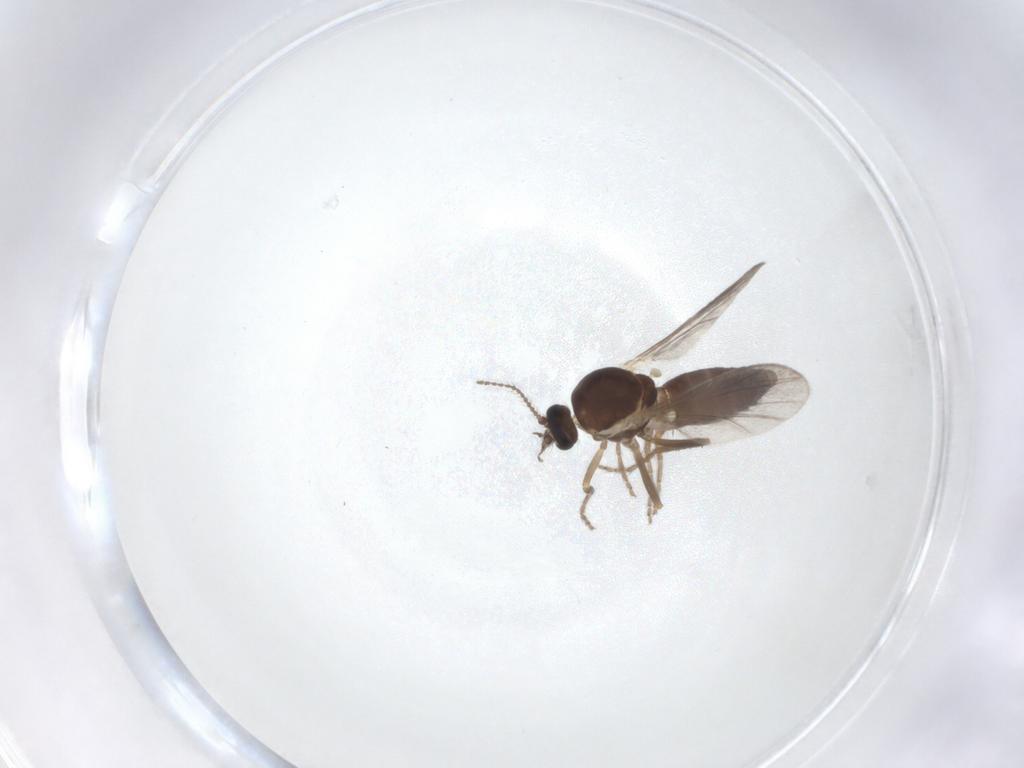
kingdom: Animalia
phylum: Arthropoda
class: Insecta
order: Diptera
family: Ceratopogonidae
